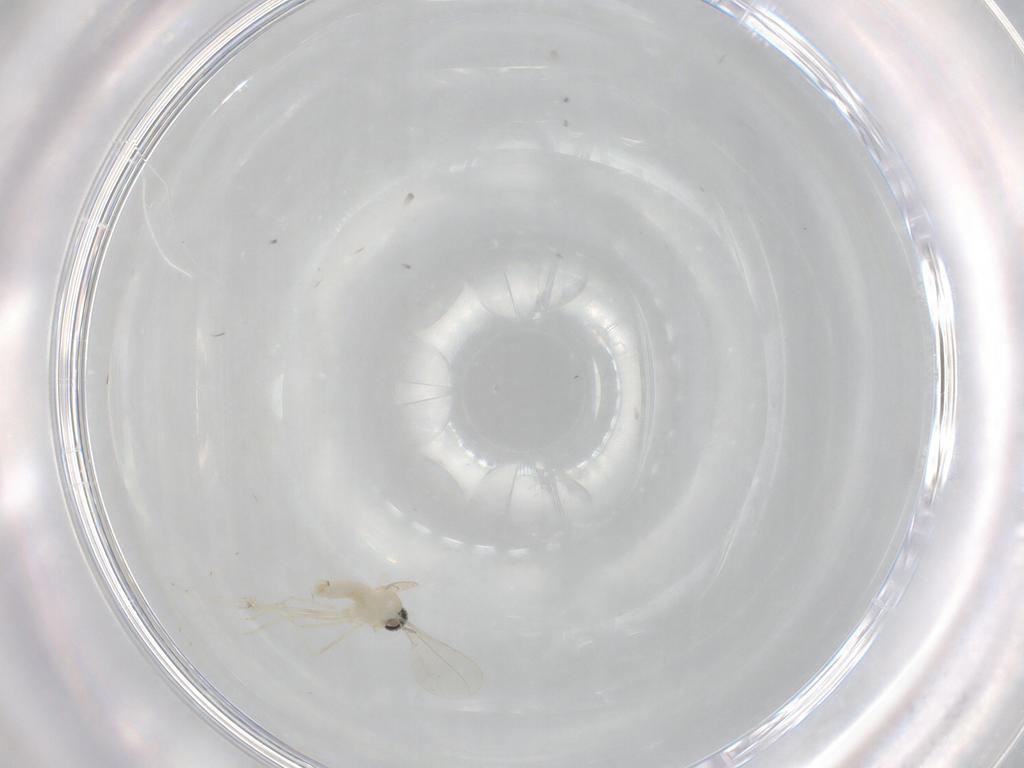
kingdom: Animalia
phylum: Arthropoda
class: Insecta
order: Diptera
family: Cecidomyiidae
